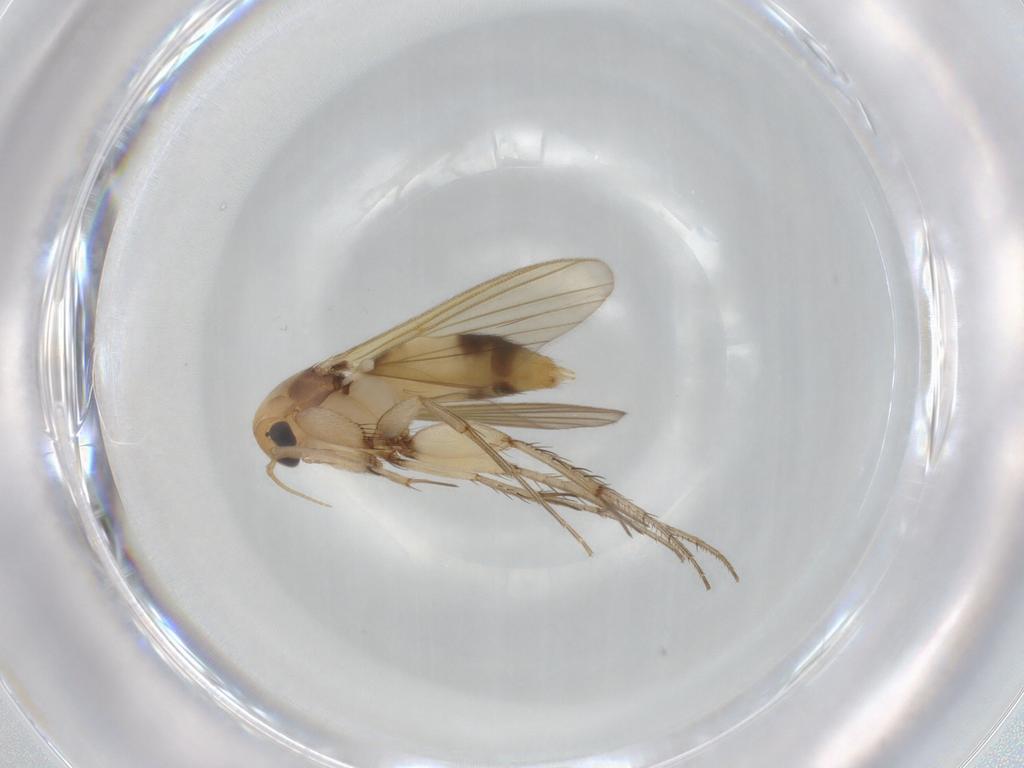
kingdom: Animalia
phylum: Arthropoda
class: Insecta
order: Diptera
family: Mycetophilidae
